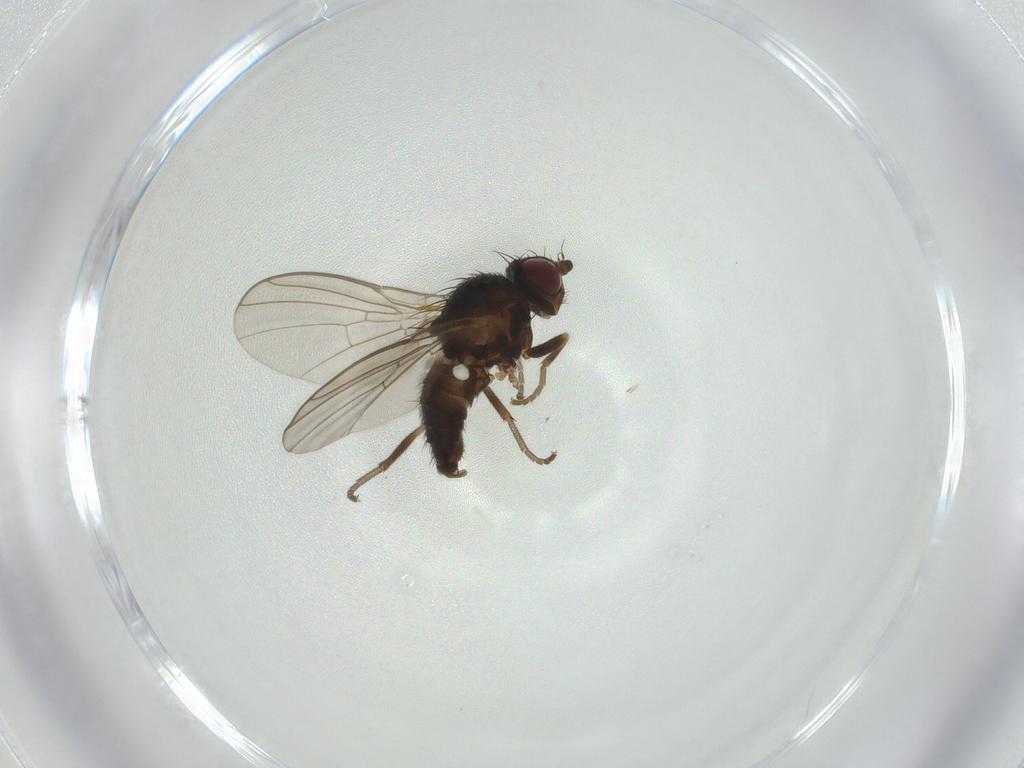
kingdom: Animalia
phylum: Arthropoda
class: Insecta
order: Diptera
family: Agromyzidae
